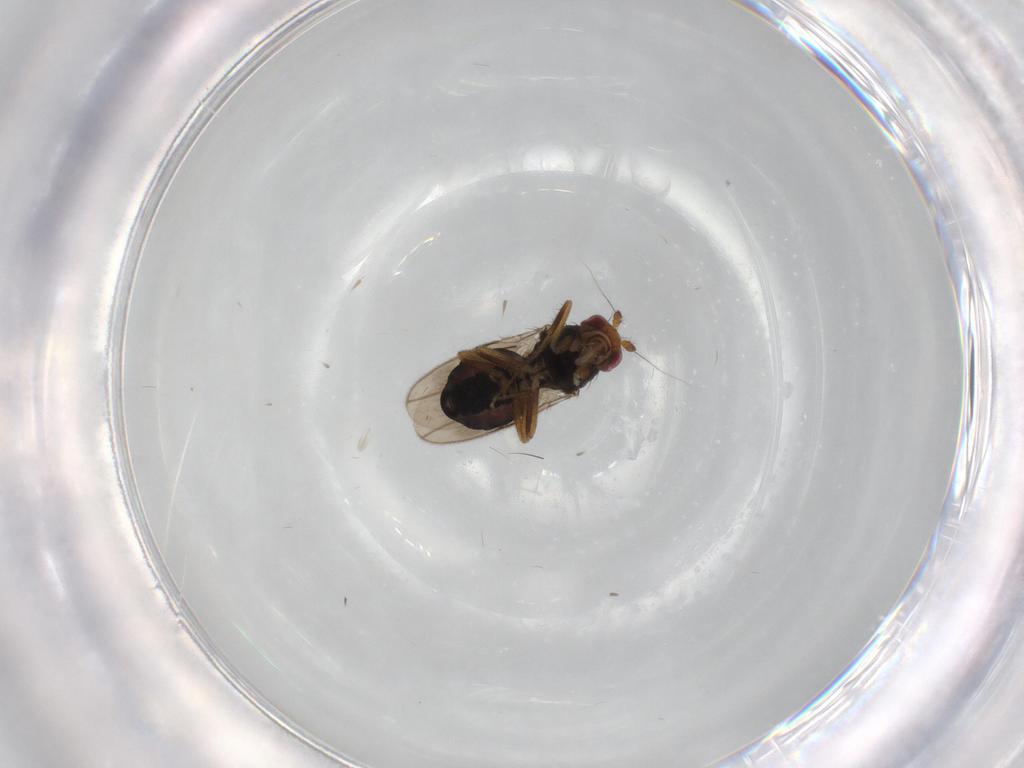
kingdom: Animalia
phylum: Arthropoda
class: Insecta
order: Diptera
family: Sphaeroceridae
